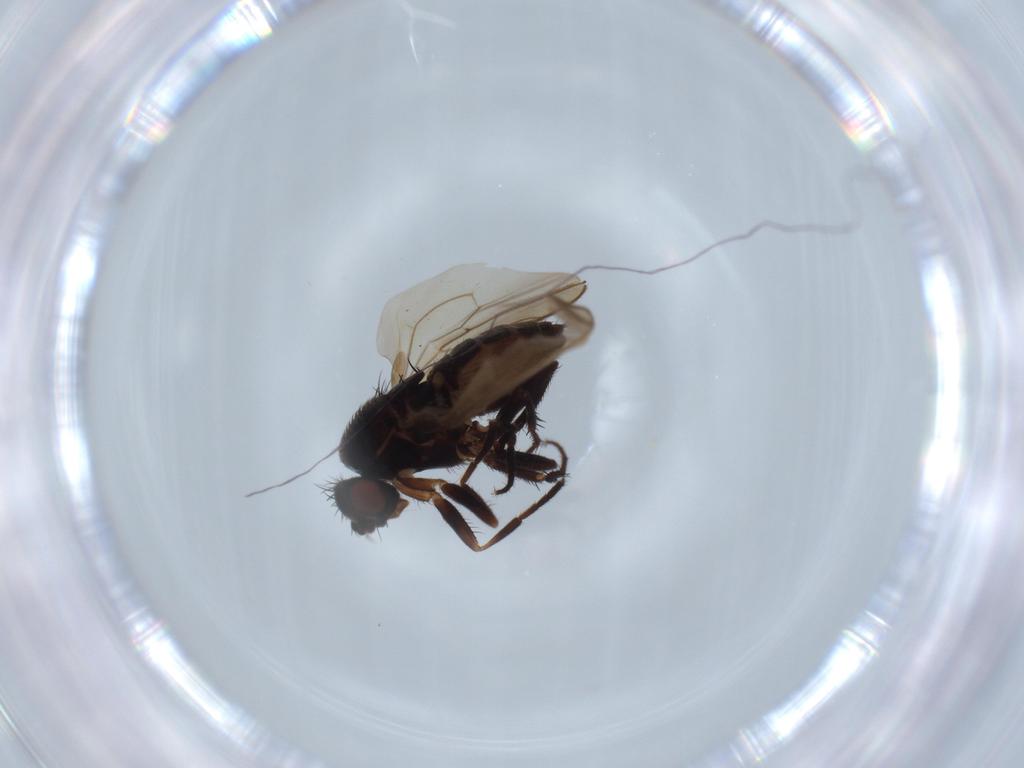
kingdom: Animalia
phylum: Arthropoda
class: Insecta
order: Diptera
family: Sphaeroceridae
